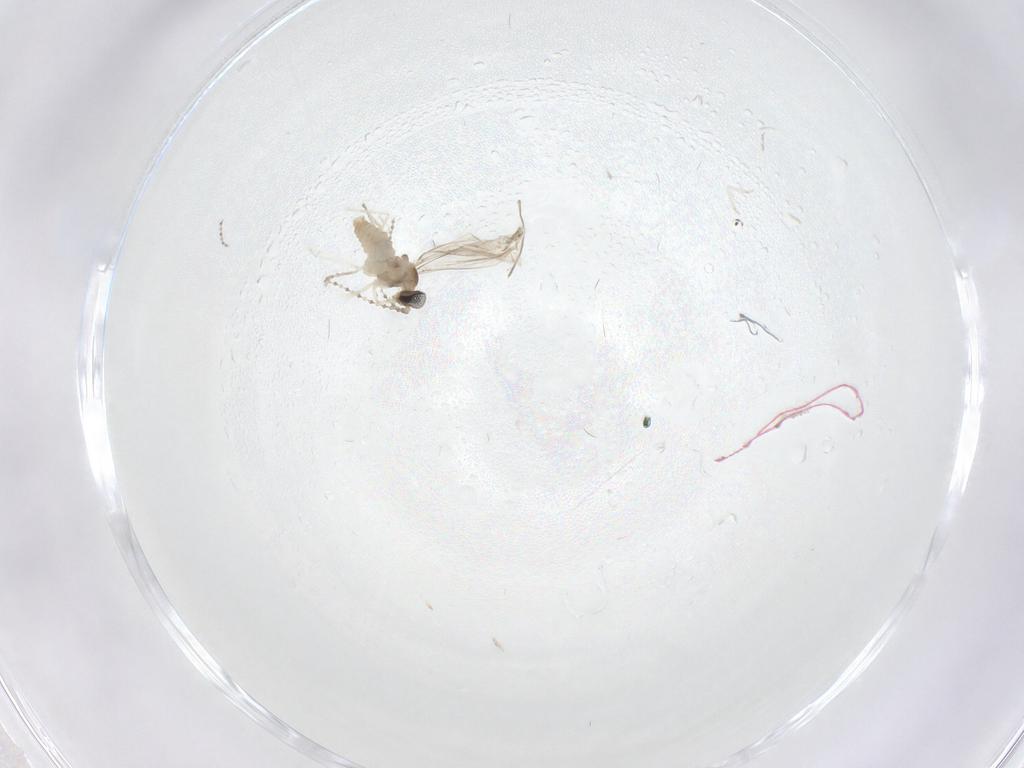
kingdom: Animalia
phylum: Arthropoda
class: Insecta
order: Diptera
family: Cecidomyiidae
